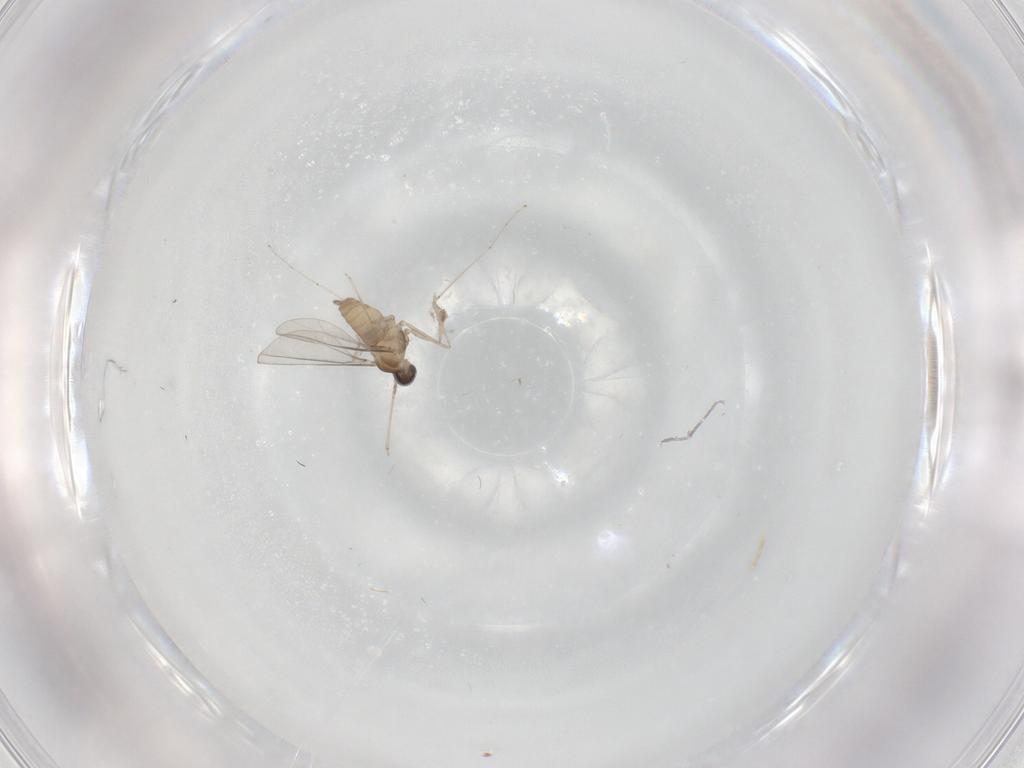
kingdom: Animalia
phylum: Arthropoda
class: Insecta
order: Diptera
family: Cecidomyiidae
